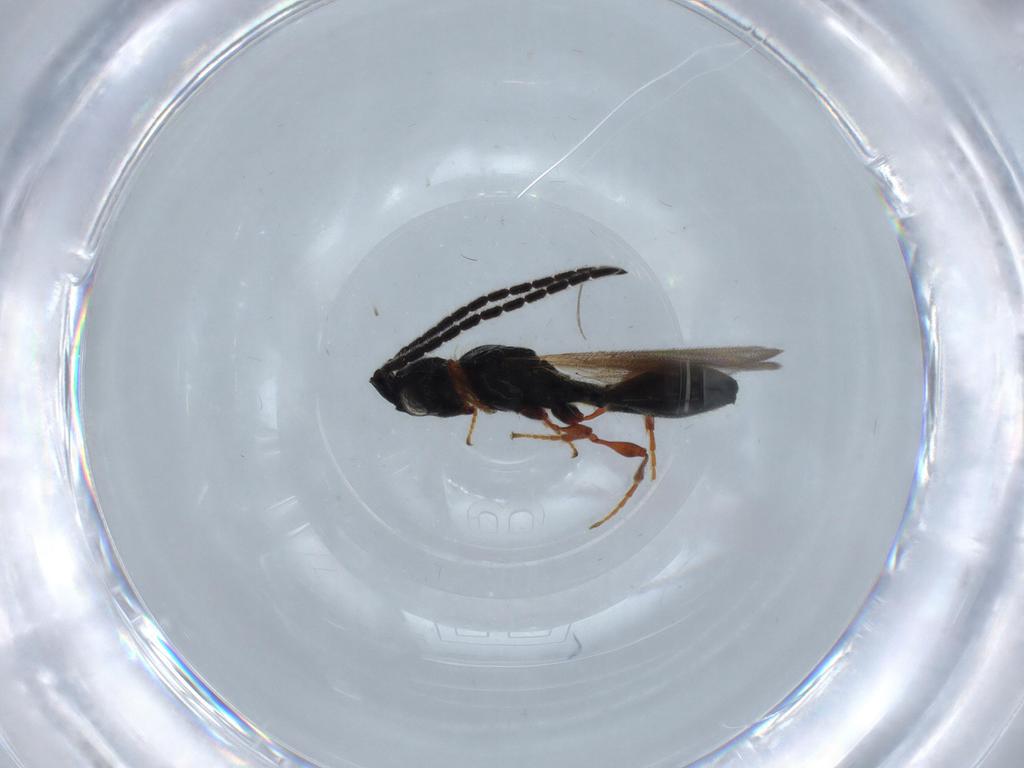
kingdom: Animalia
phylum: Arthropoda
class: Insecta
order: Hymenoptera
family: Diapriidae
